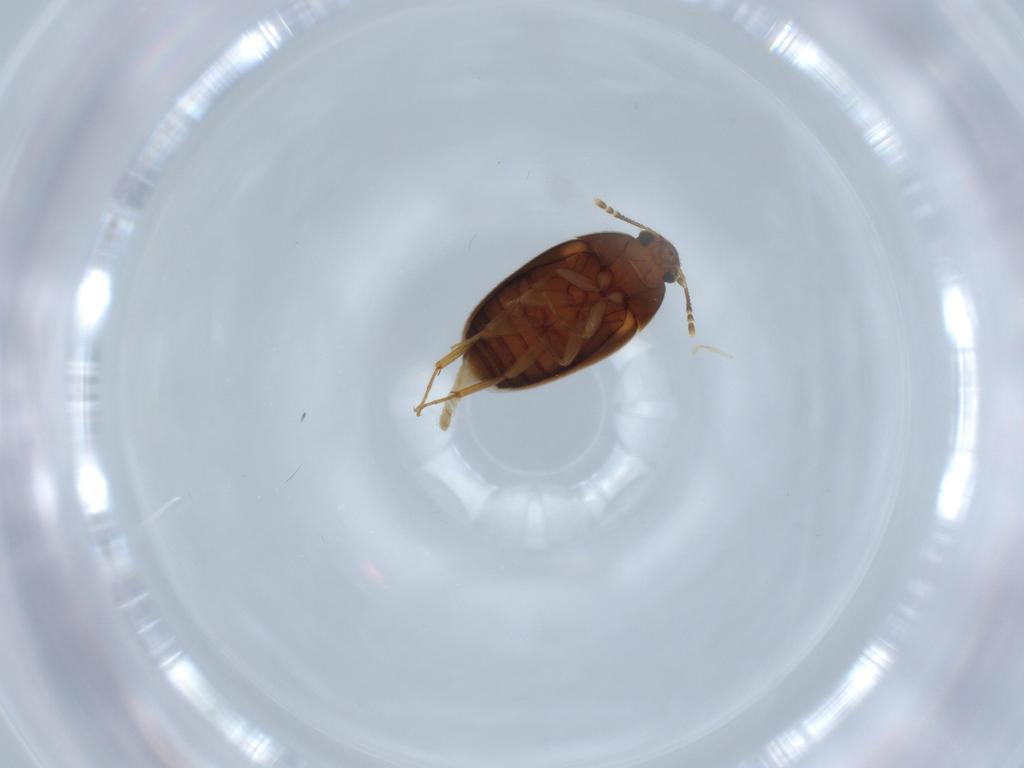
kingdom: Animalia
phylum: Arthropoda
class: Insecta
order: Coleoptera
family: Mycetophagidae
